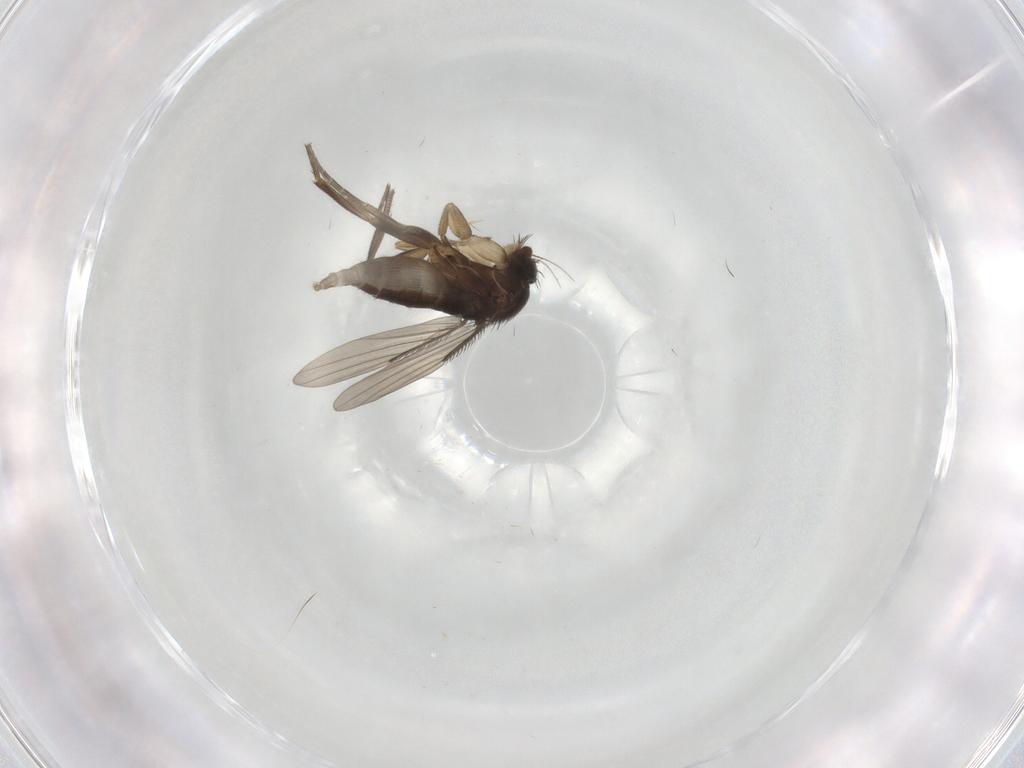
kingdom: Animalia
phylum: Arthropoda
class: Insecta
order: Diptera
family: Phoridae
